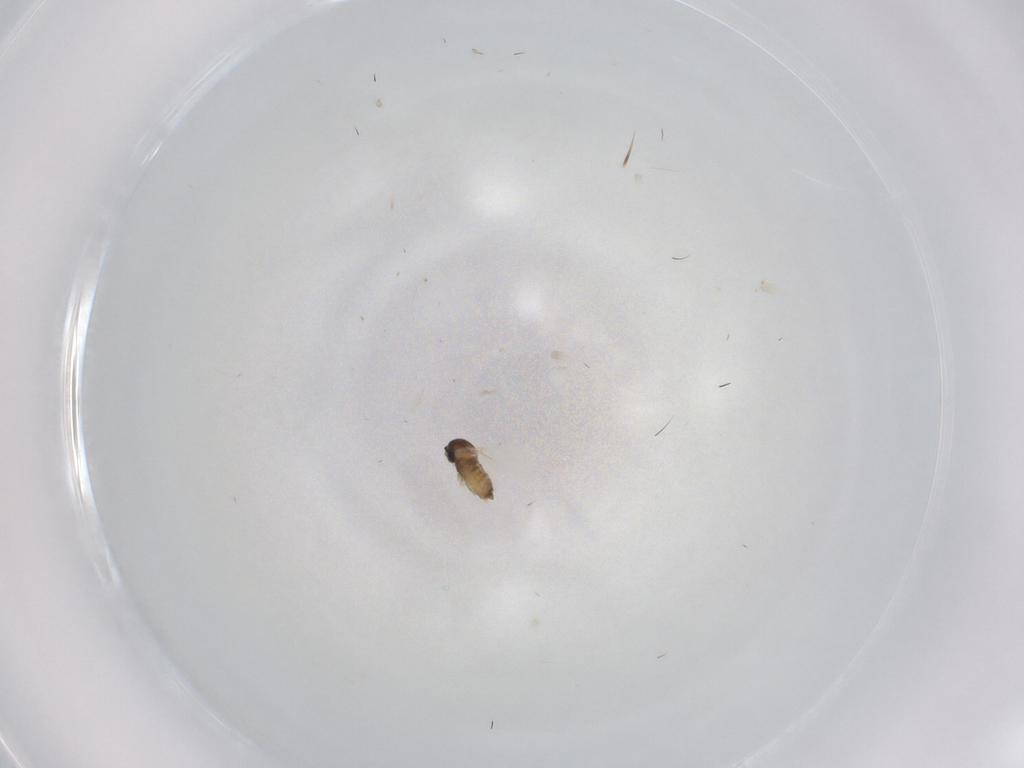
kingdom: Animalia
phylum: Arthropoda
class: Insecta
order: Diptera
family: Cecidomyiidae
